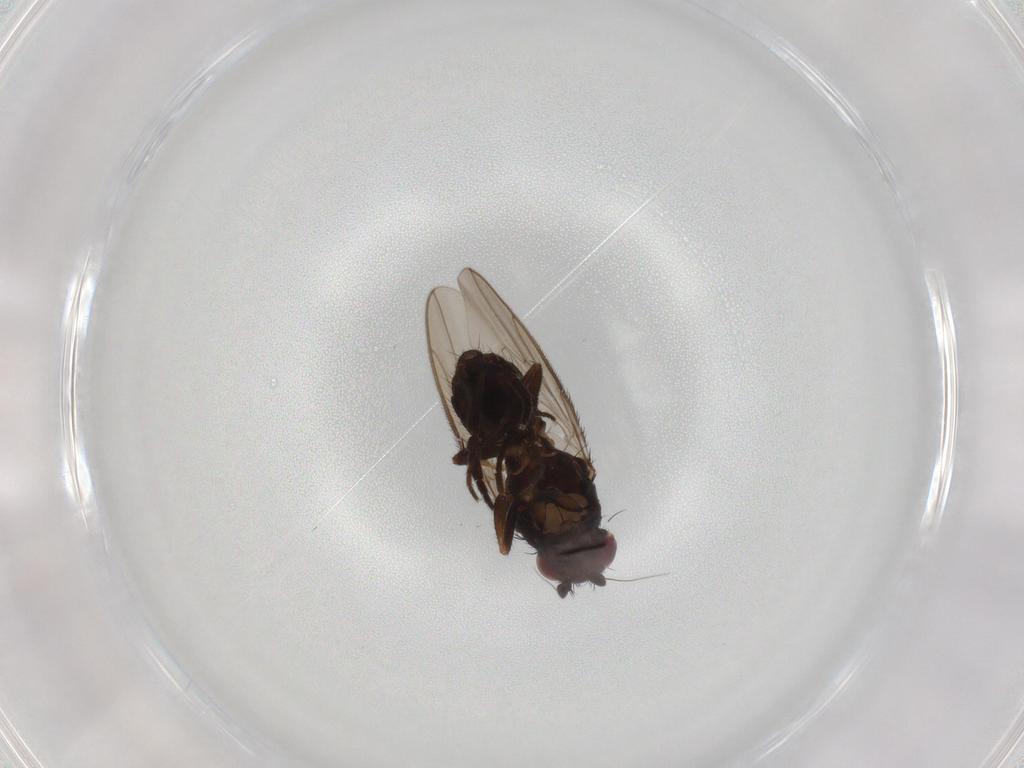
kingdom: Animalia
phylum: Arthropoda
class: Insecta
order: Diptera
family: Sphaeroceridae
